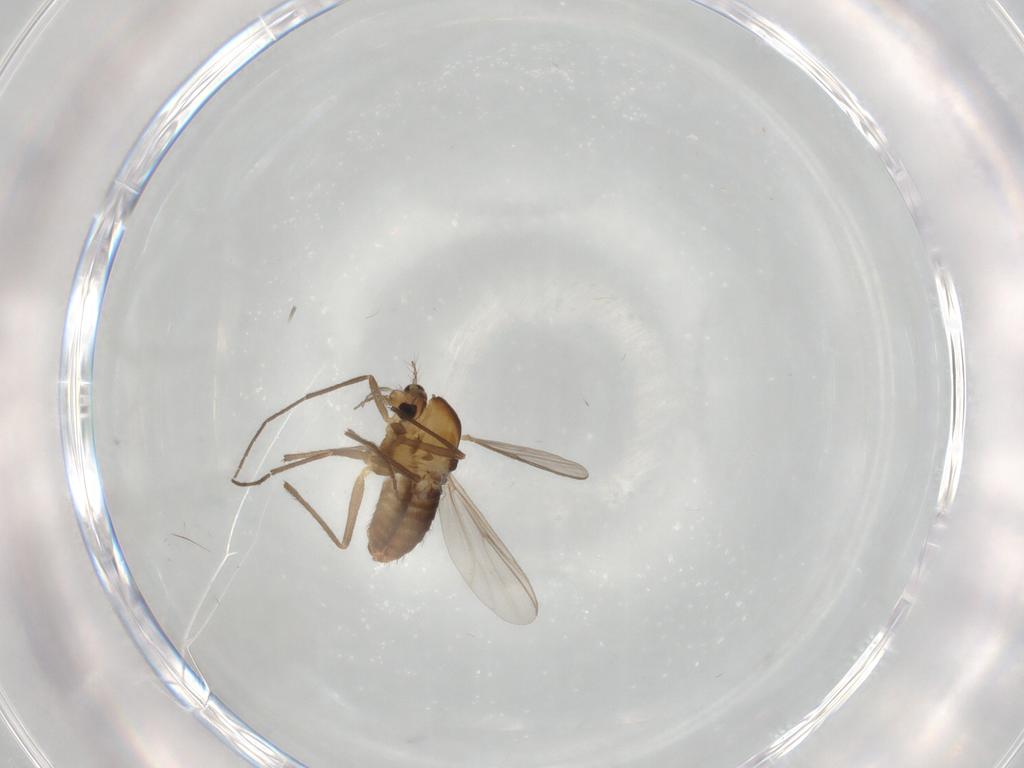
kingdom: Animalia
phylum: Arthropoda
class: Insecta
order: Diptera
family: Chironomidae
